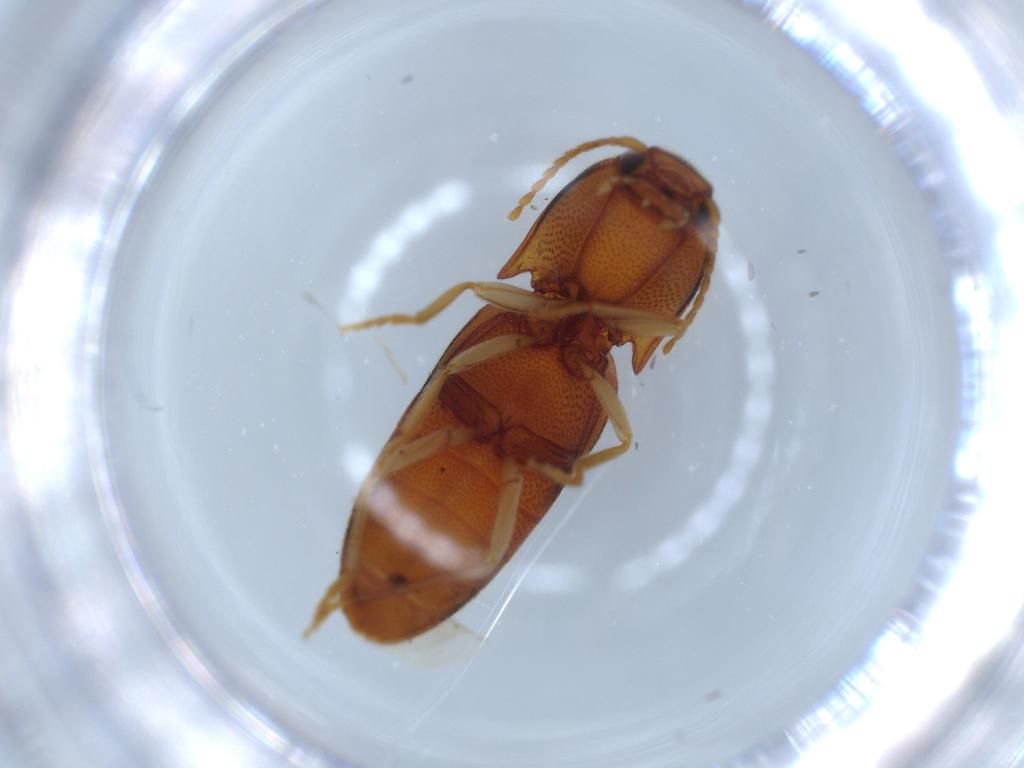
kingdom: Animalia
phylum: Arthropoda
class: Insecta
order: Coleoptera
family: Elateridae
